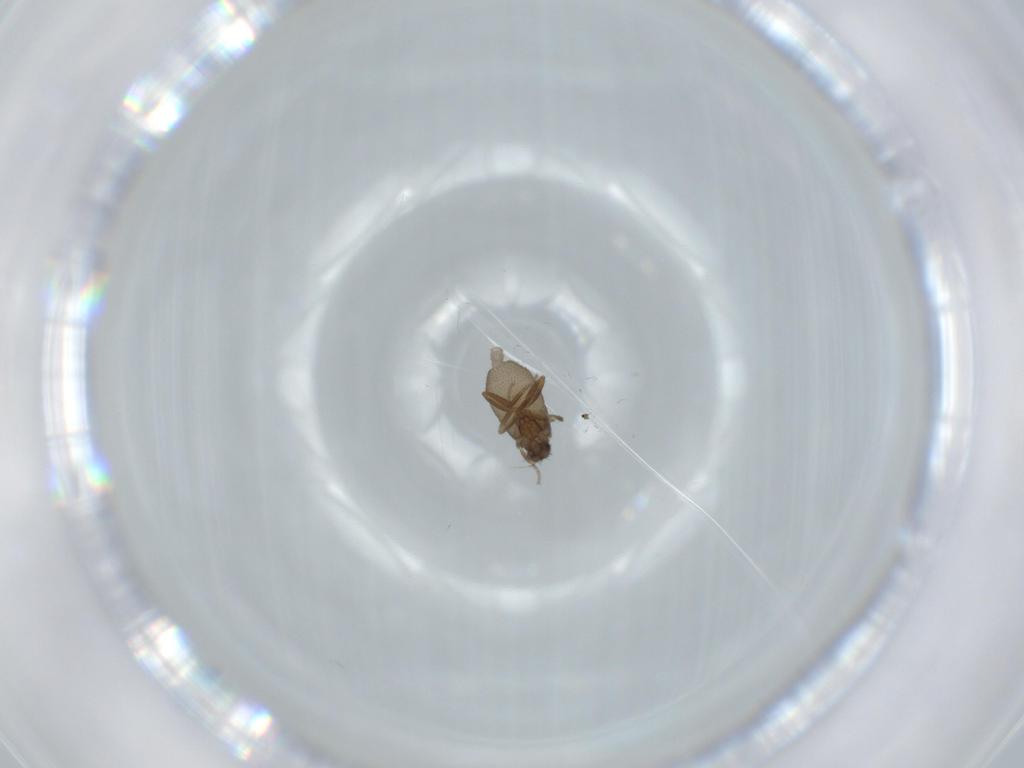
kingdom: Animalia
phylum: Arthropoda
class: Insecta
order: Diptera
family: Phoridae
